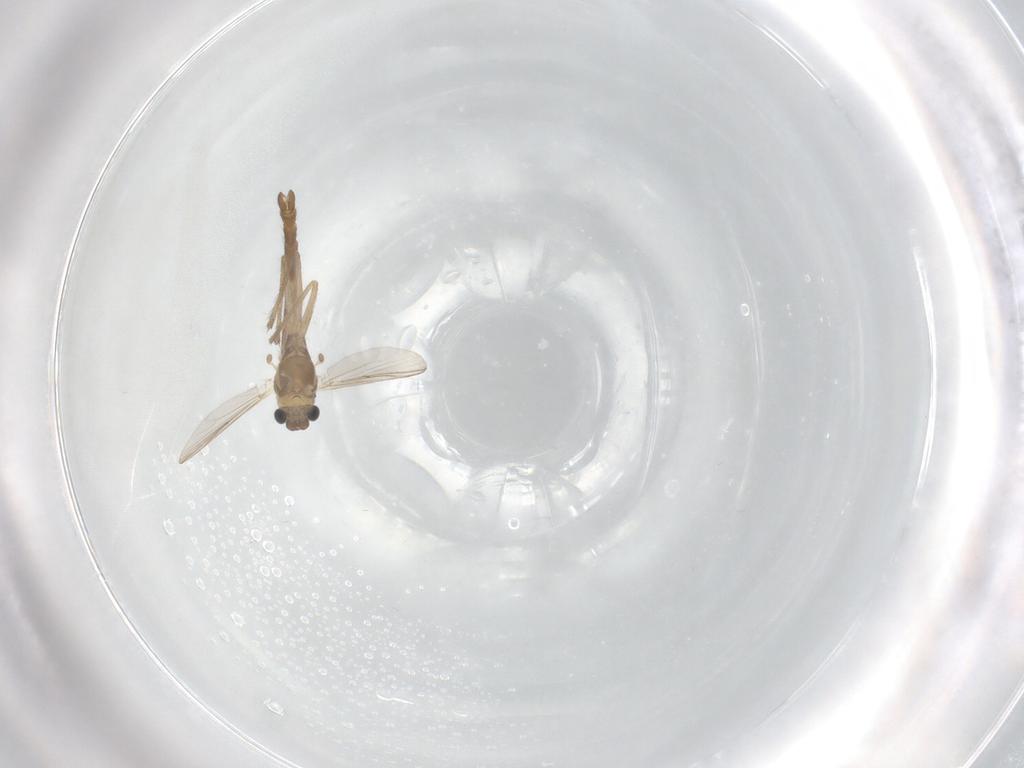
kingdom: Animalia
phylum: Arthropoda
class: Insecta
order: Diptera
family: Chironomidae
